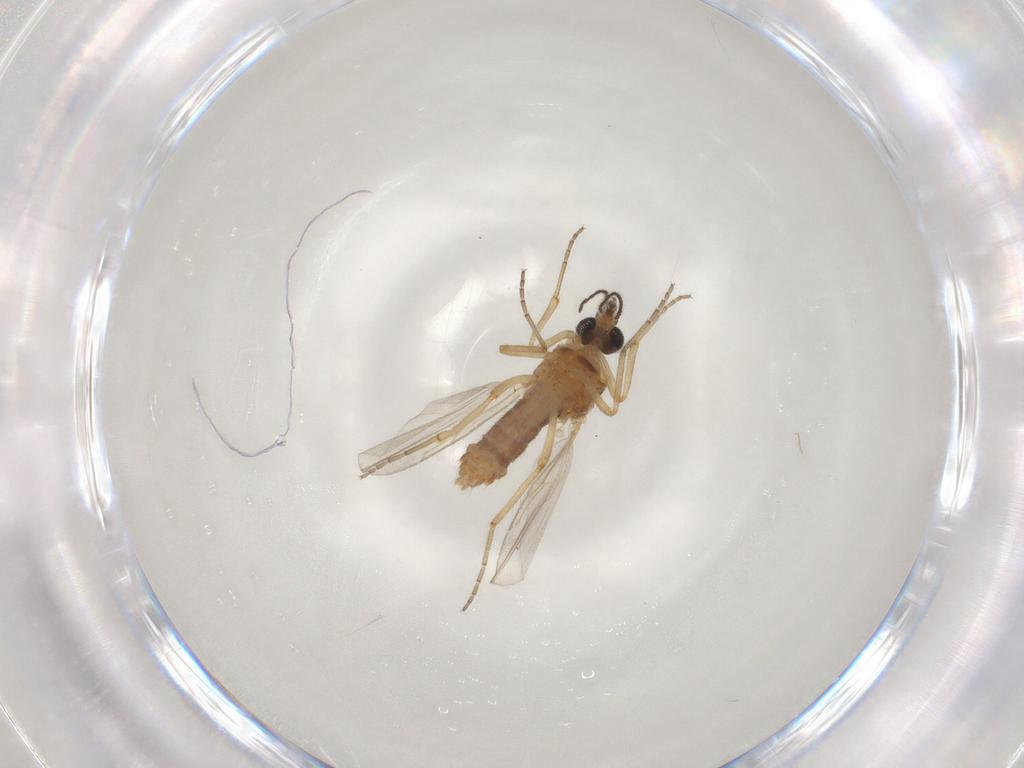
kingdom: Animalia
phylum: Arthropoda
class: Insecta
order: Diptera
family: Ceratopogonidae
